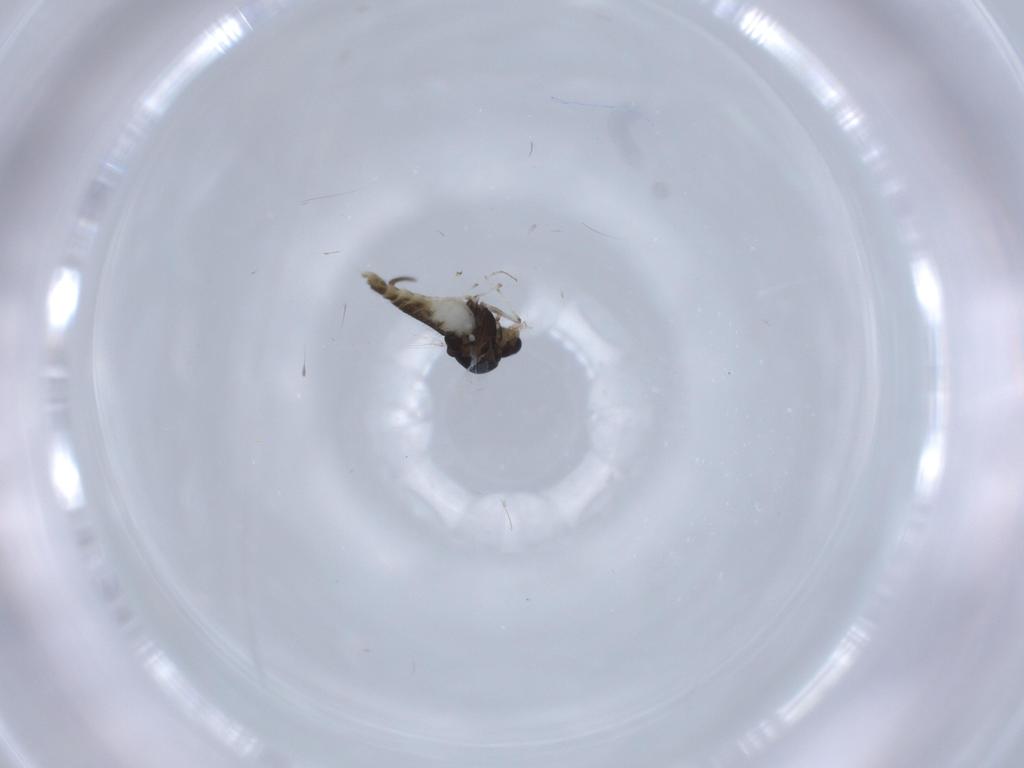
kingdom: Animalia
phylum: Arthropoda
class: Insecta
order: Diptera
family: Chironomidae
